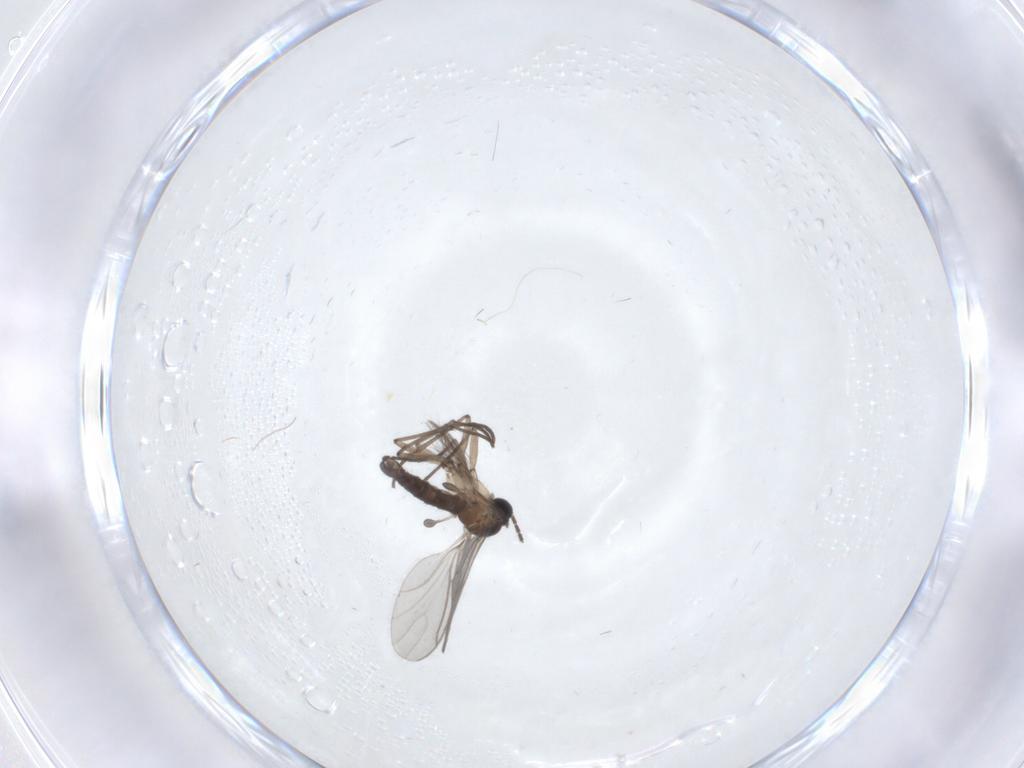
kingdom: Animalia
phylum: Arthropoda
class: Insecta
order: Diptera
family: Sciaridae
